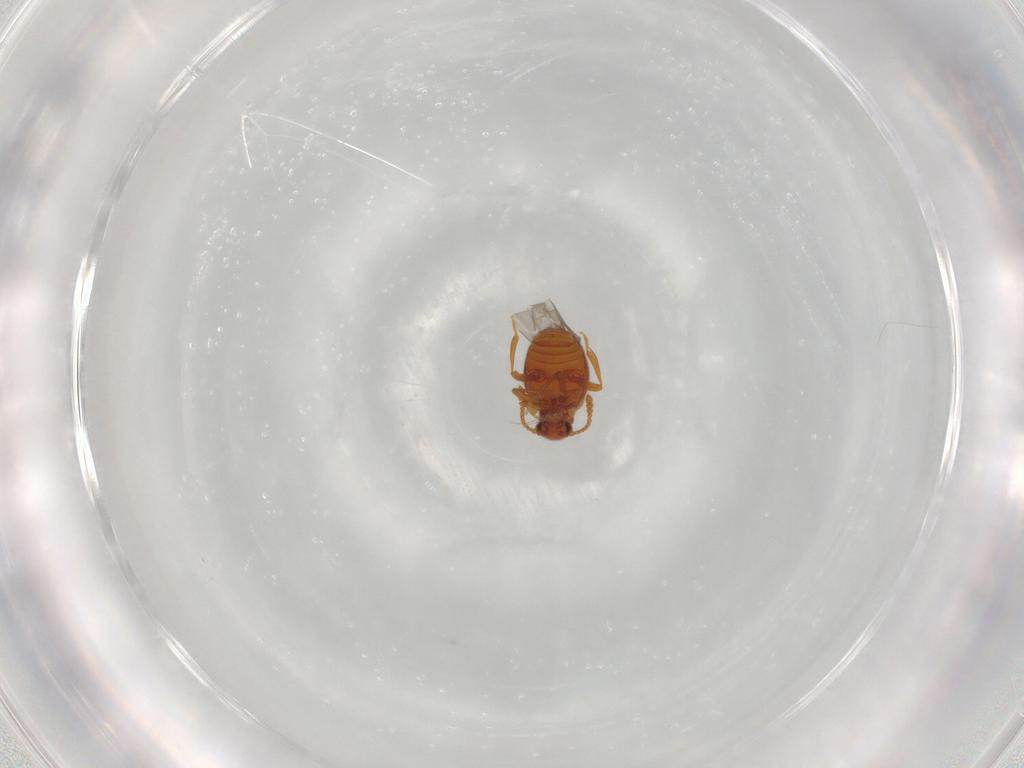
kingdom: Animalia
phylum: Arthropoda
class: Insecta
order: Coleoptera
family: Aderidae
